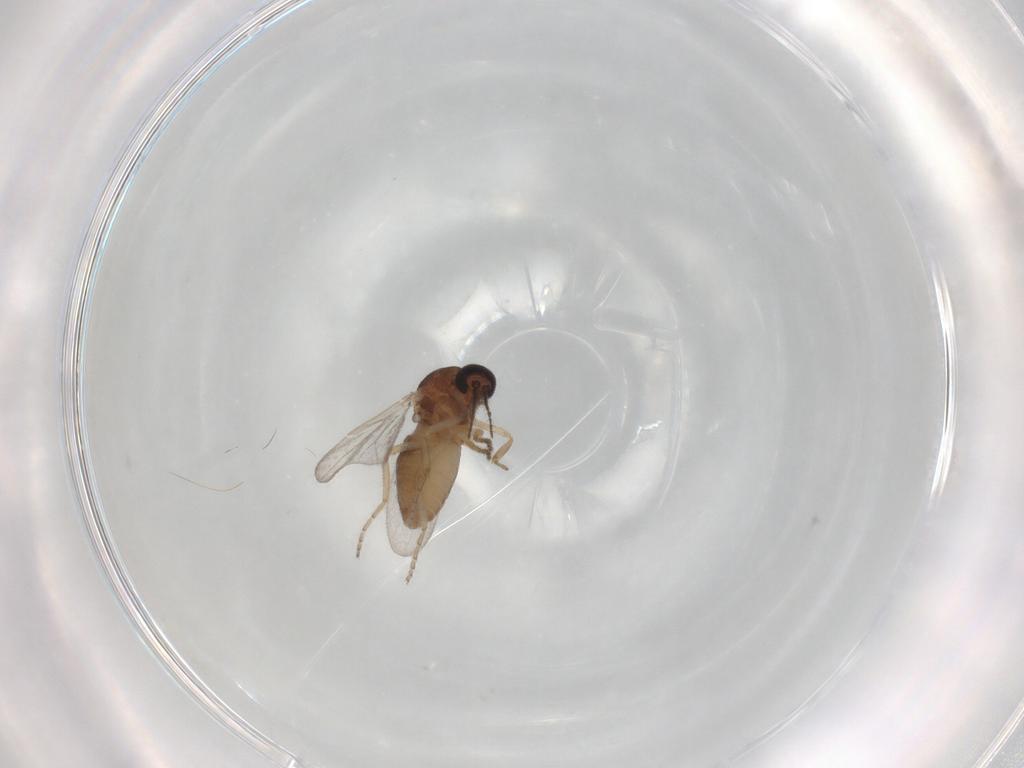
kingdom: Animalia
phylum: Arthropoda
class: Insecta
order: Diptera
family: Ceratopogonidae
